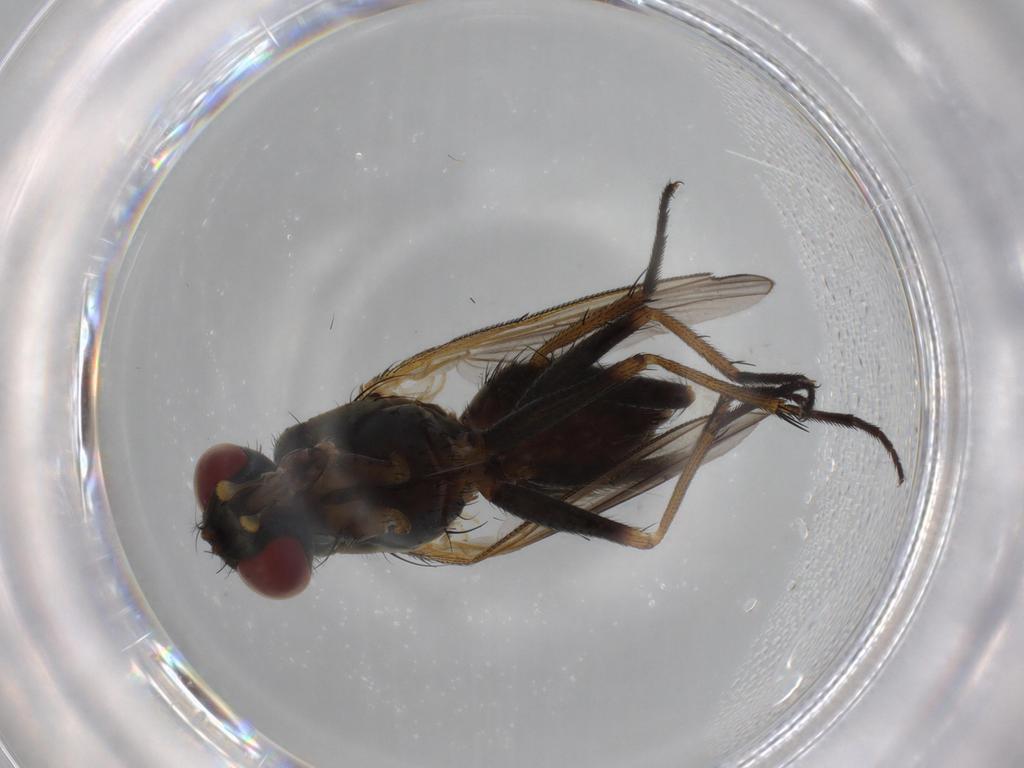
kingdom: Animalia
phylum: Arthropoda
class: Insecta
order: Diptera
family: Muscidae
